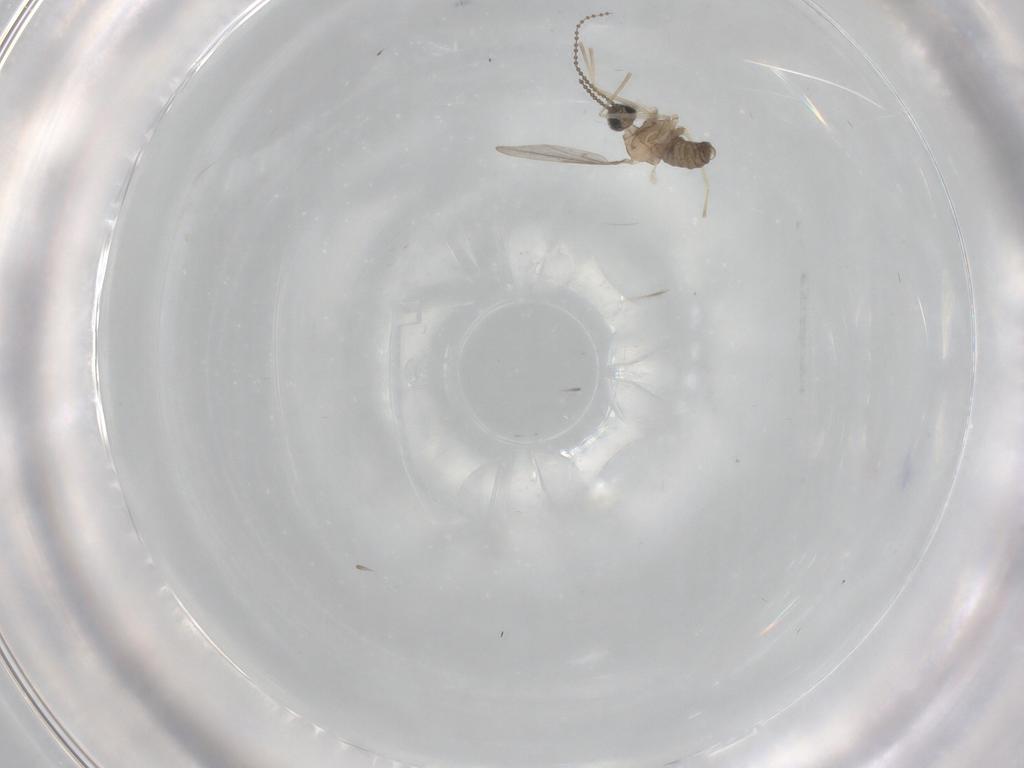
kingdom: Animalia
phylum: Arthropoda
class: Insecta
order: Diptera
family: Cecidomyiidae
